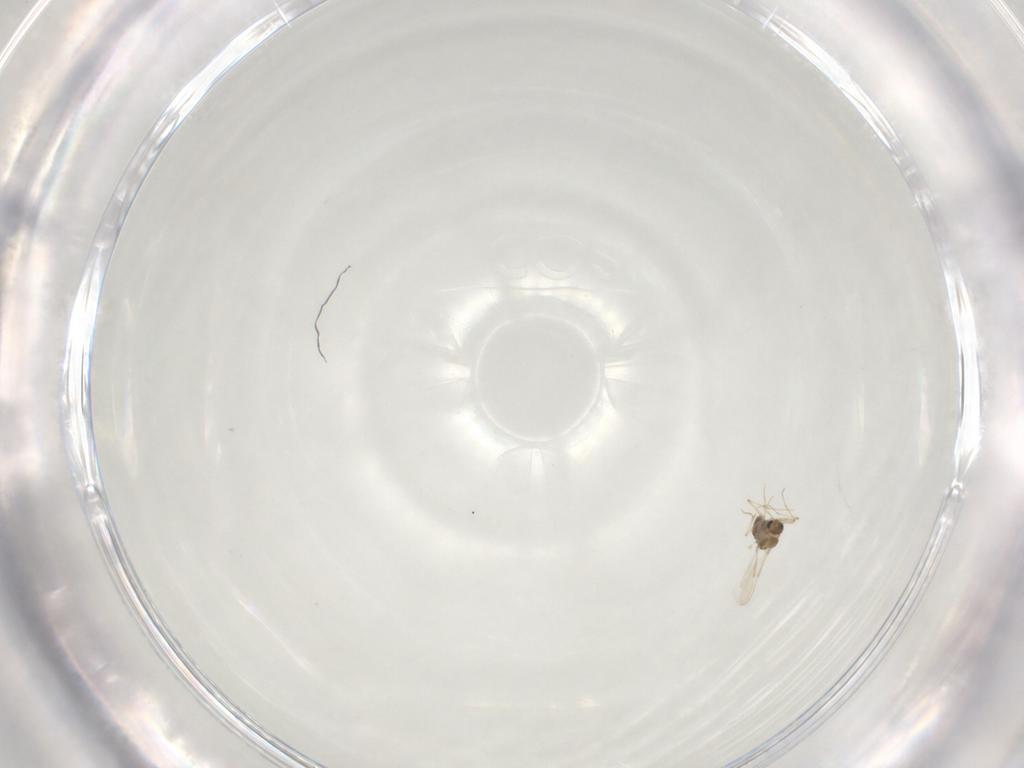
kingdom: Animalia
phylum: Arthropoda
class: Insecta
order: Diptera
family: Chironomidae
